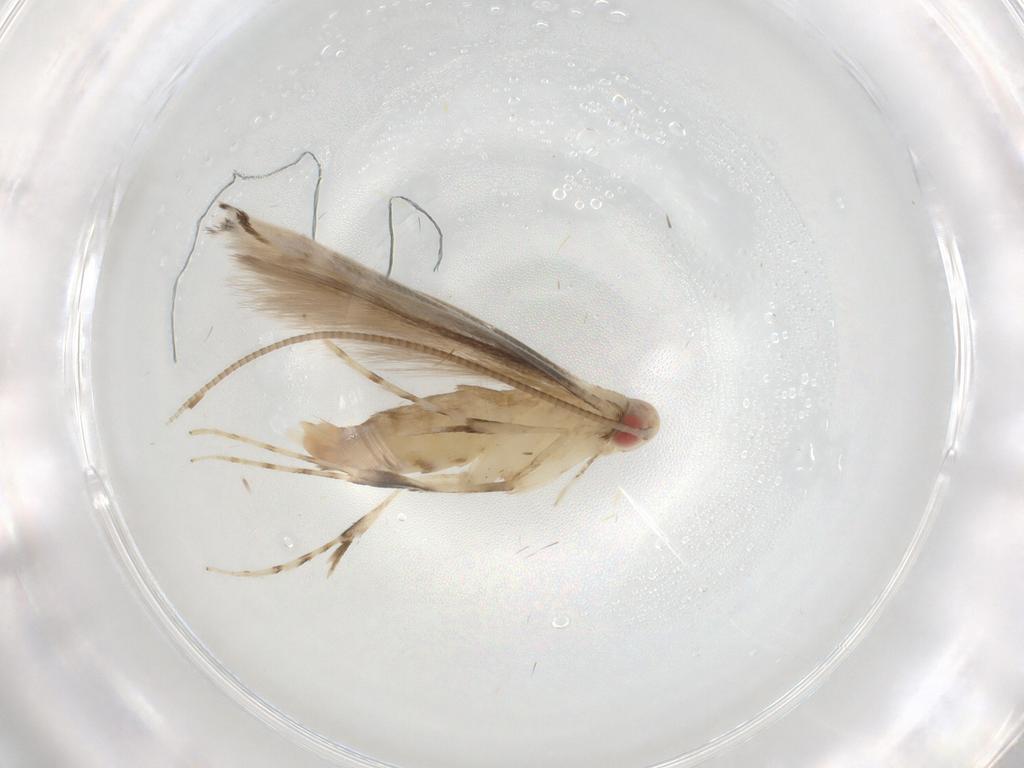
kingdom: Animalia
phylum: Arthropoda
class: Insecta
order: Lepidoptera
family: Crambidae
